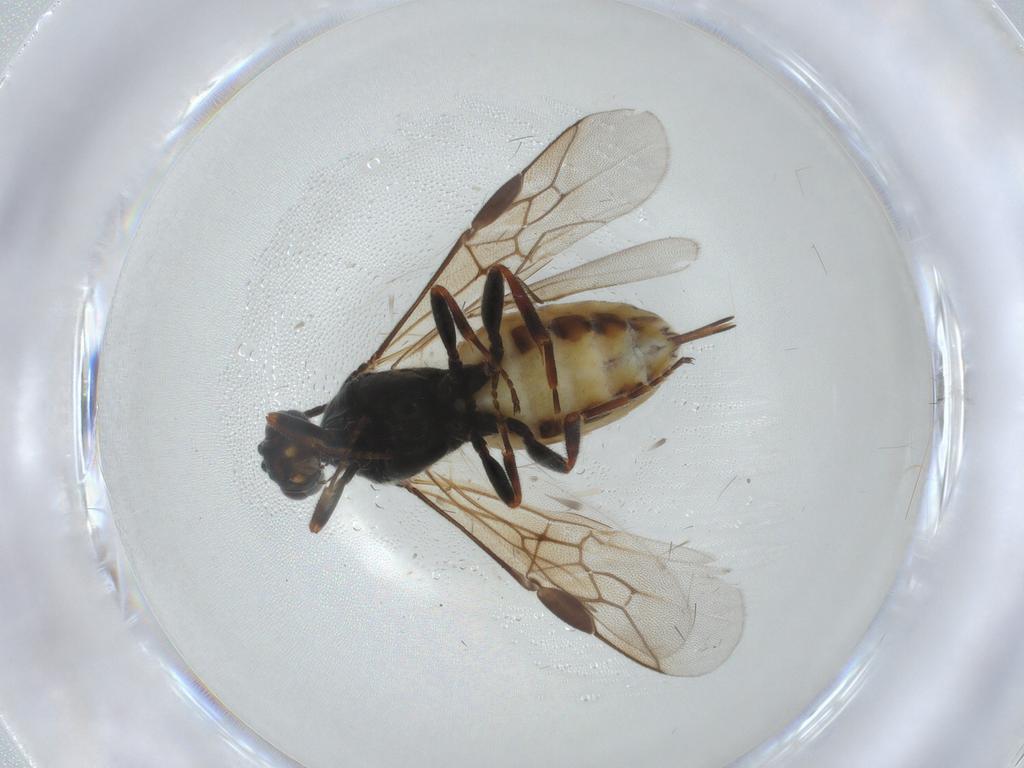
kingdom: Animalia
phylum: Arthropoda
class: Insecta
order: Hymenoptera
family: Braconidae
